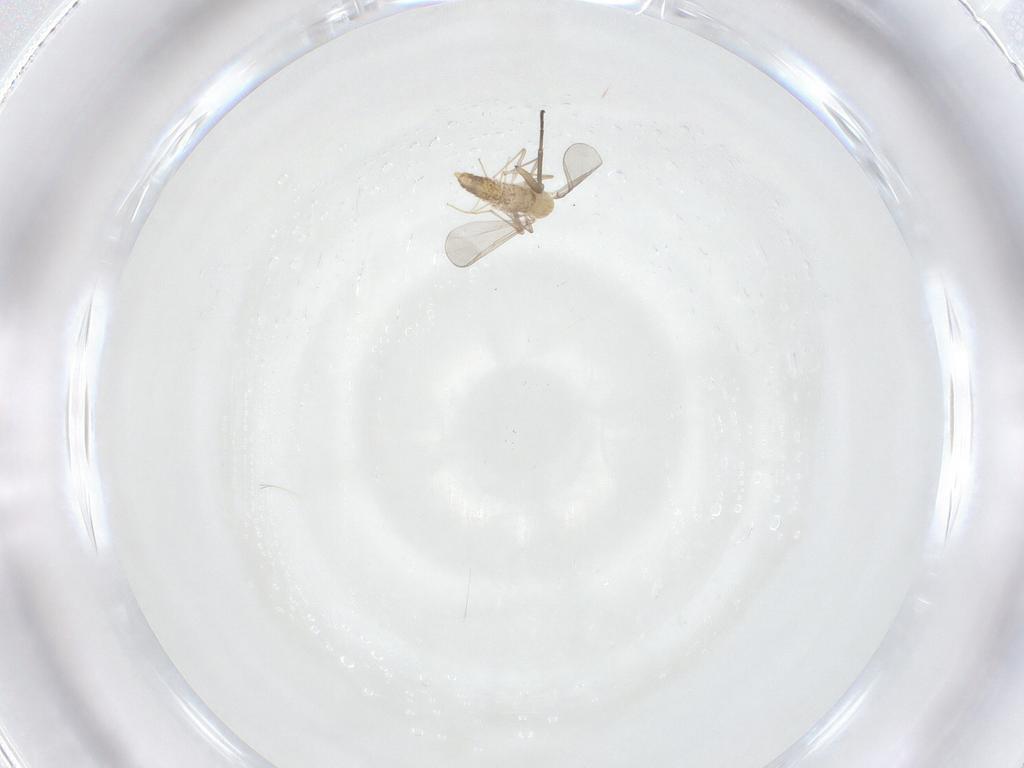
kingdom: Animalia
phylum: Arthropoda
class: Insecta
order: Diptera
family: Chironomidae
